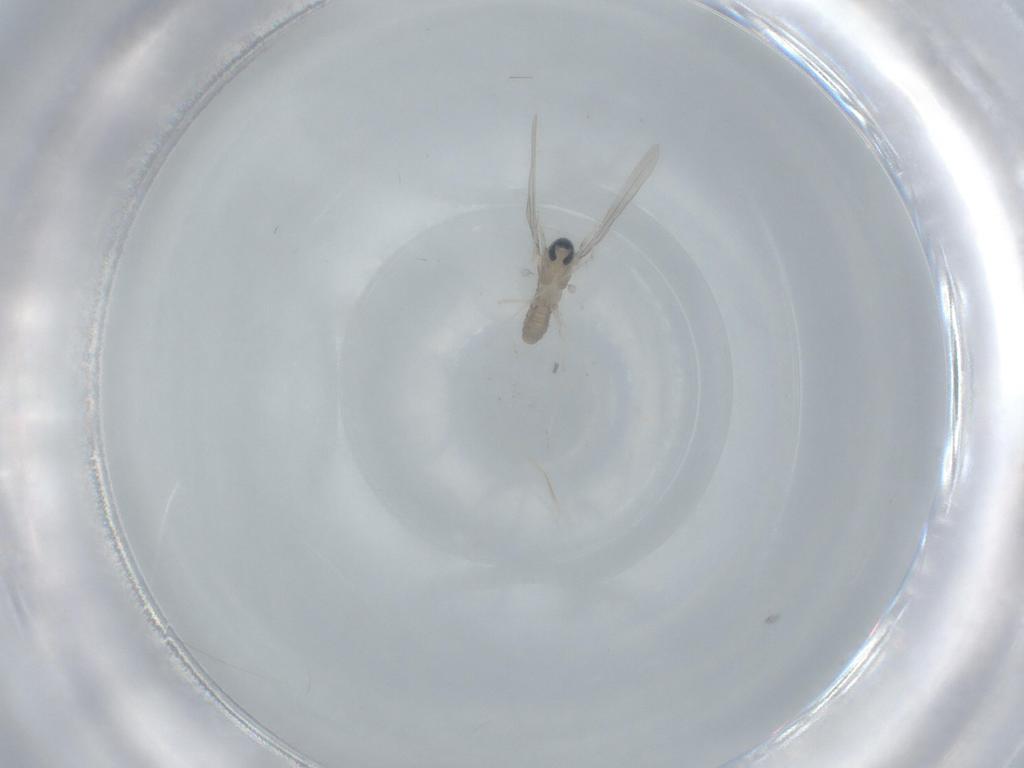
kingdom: Animalia
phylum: Arthropoda
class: Insecta
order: Diptera
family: Cecidomyiidae
